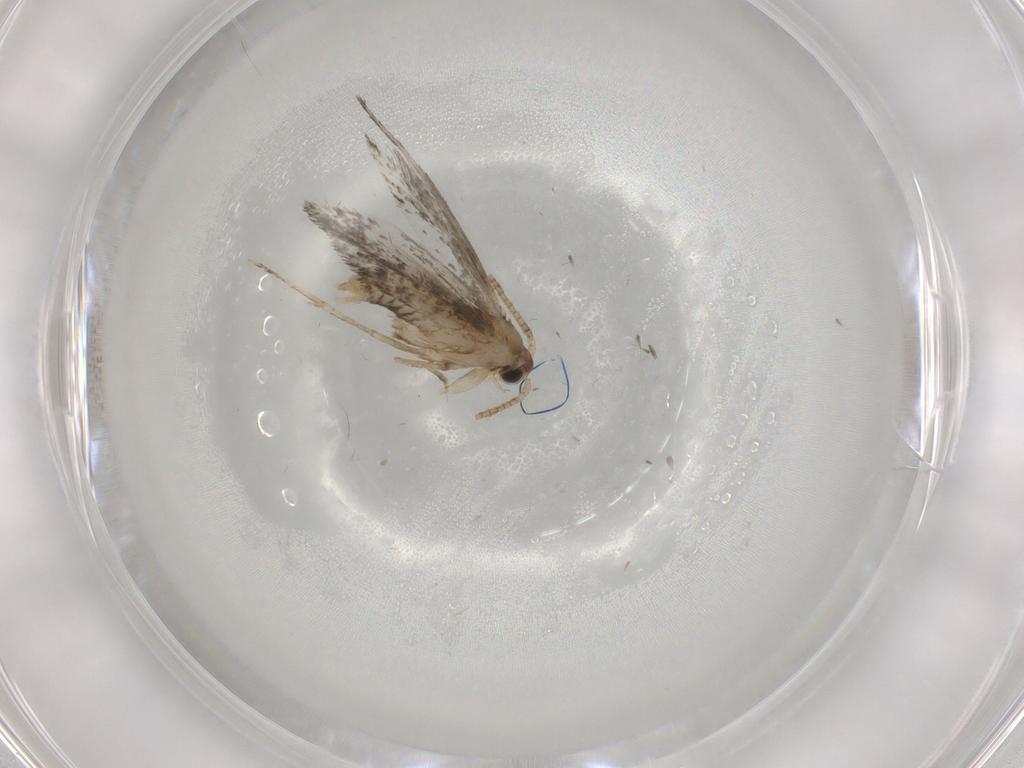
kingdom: Animalia
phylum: Arthropoda
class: Insecta
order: Lepidoptera
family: Tineidae
